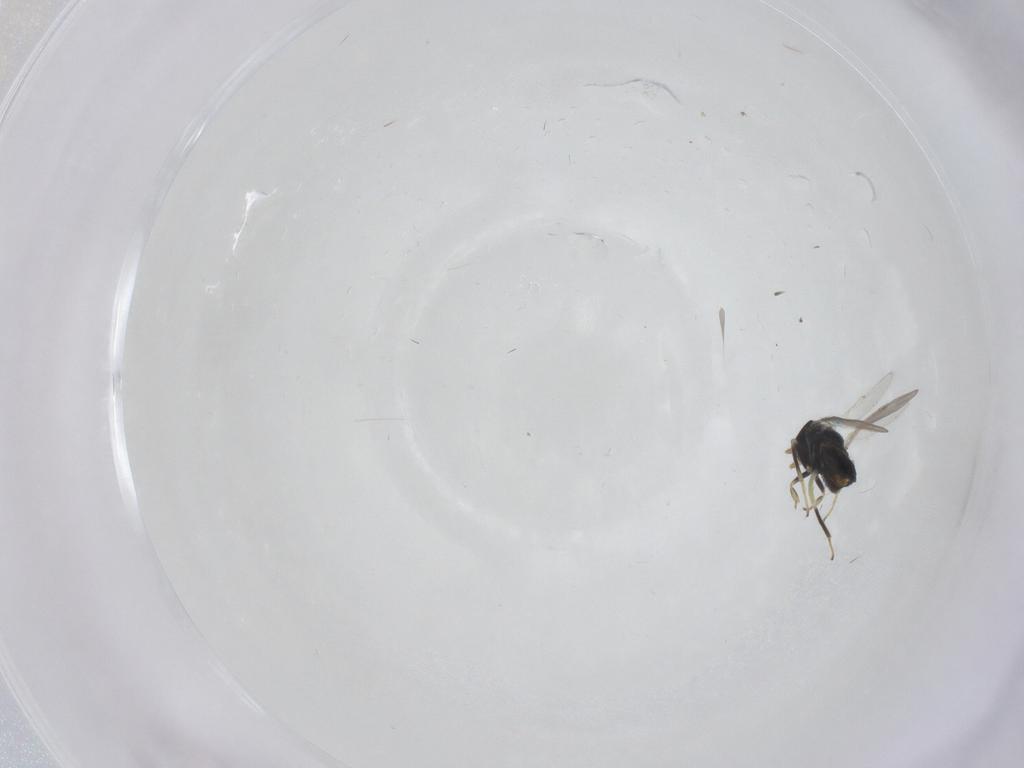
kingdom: Animalia
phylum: Arthropoda
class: Insecta
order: Hymenoptera
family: Aphelinidae
